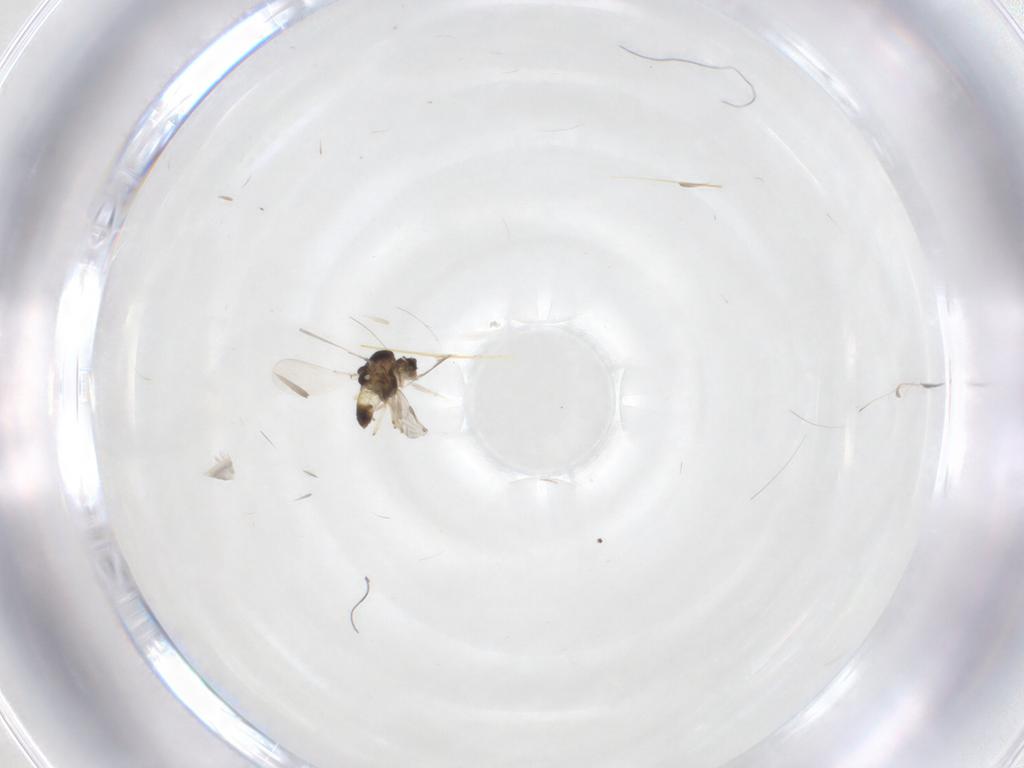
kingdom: Animalia
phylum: Arthropoda
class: Insecta
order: Diptera
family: Chironomidae
